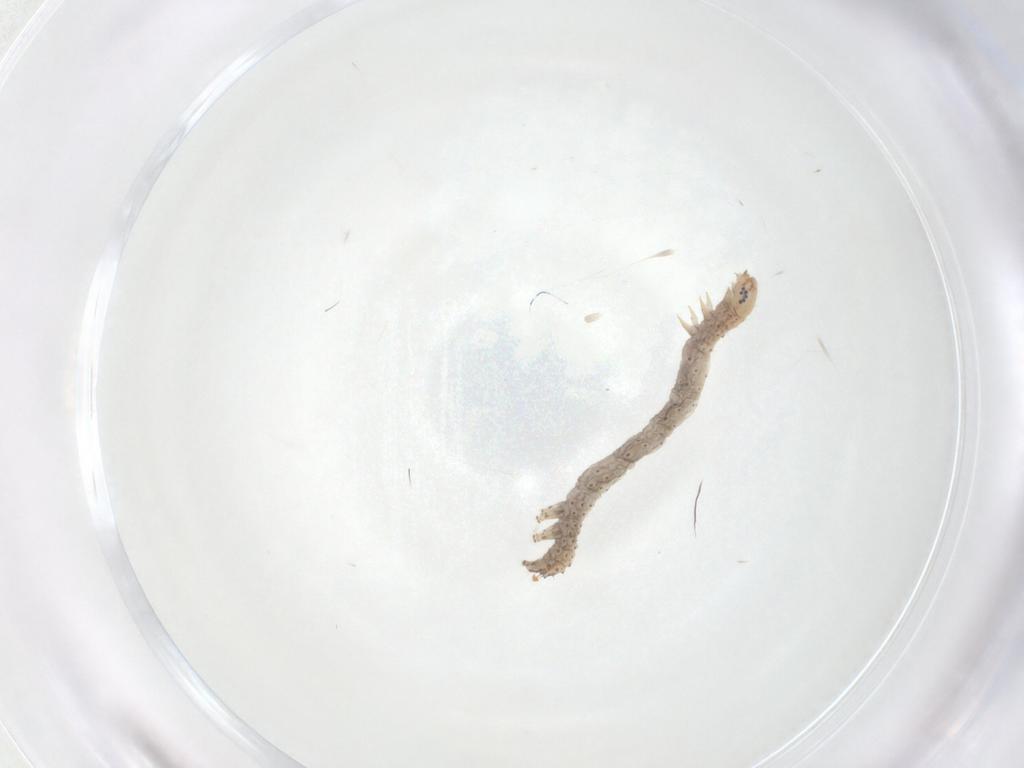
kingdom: Animalia
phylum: Arthropoda
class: Insecta
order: Lepidoptera
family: Erebidae
